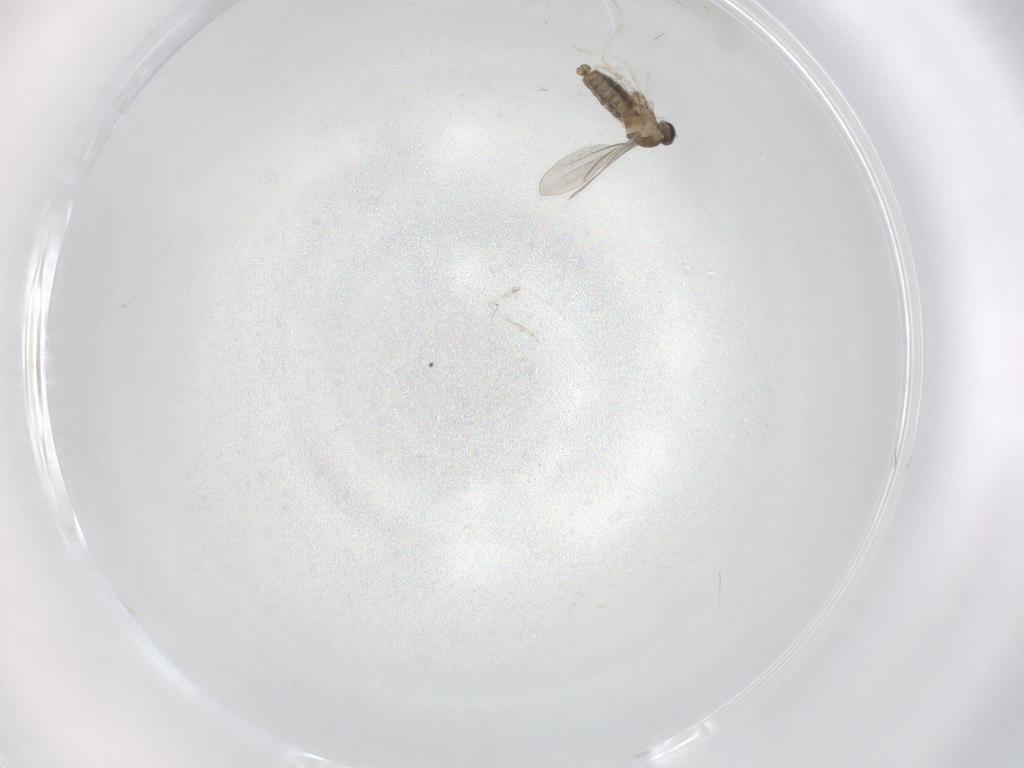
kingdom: Animalia
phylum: Arthropoda
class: Insecta
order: Diptera
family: Cecidomyiidae
